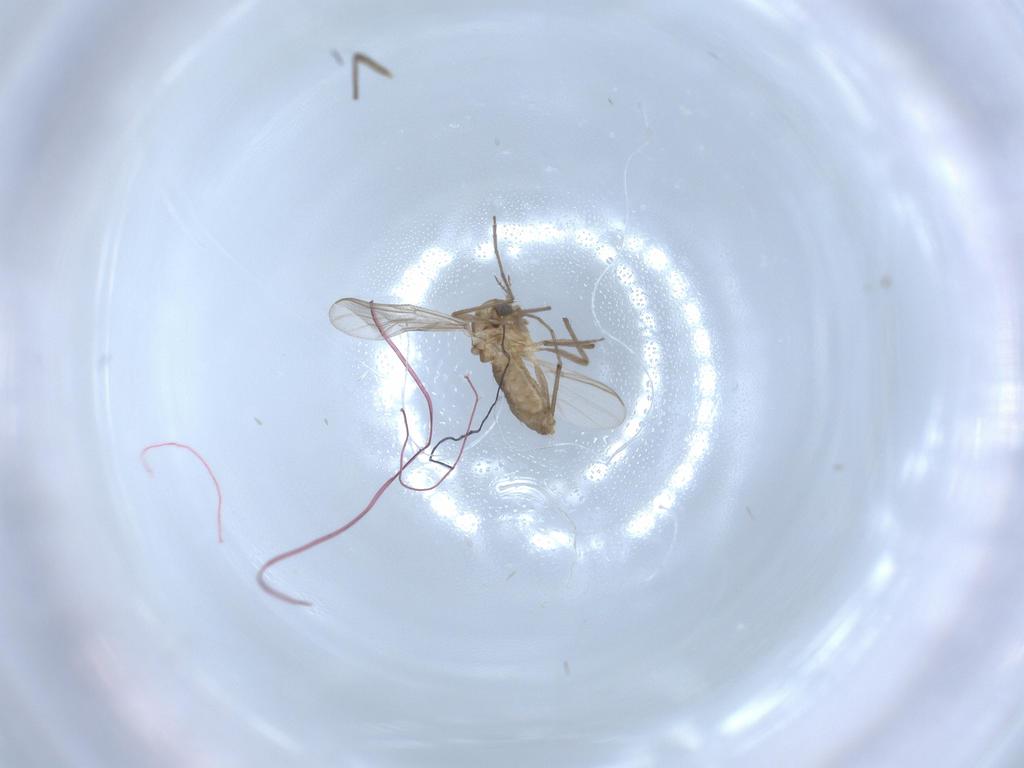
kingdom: Animalia
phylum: Arthropoda
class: Insecta
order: Diptera
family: Chironomidae
